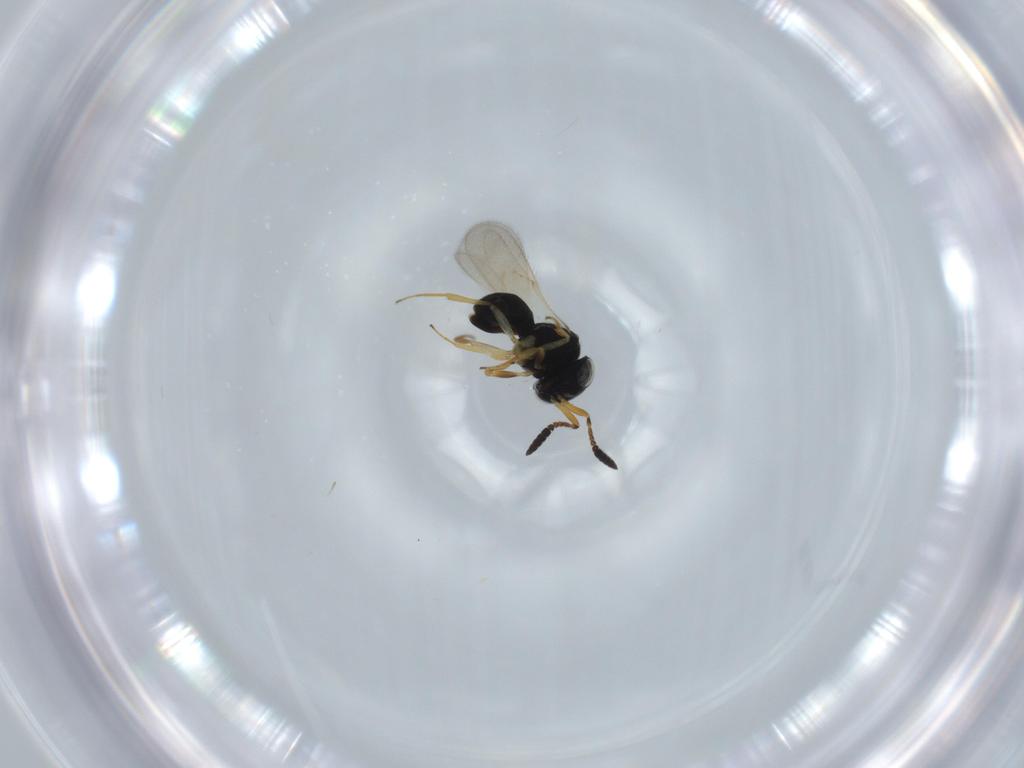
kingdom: Animalia
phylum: Arthropoda
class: Insecta
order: Hymenoptera
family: Scelionidae
